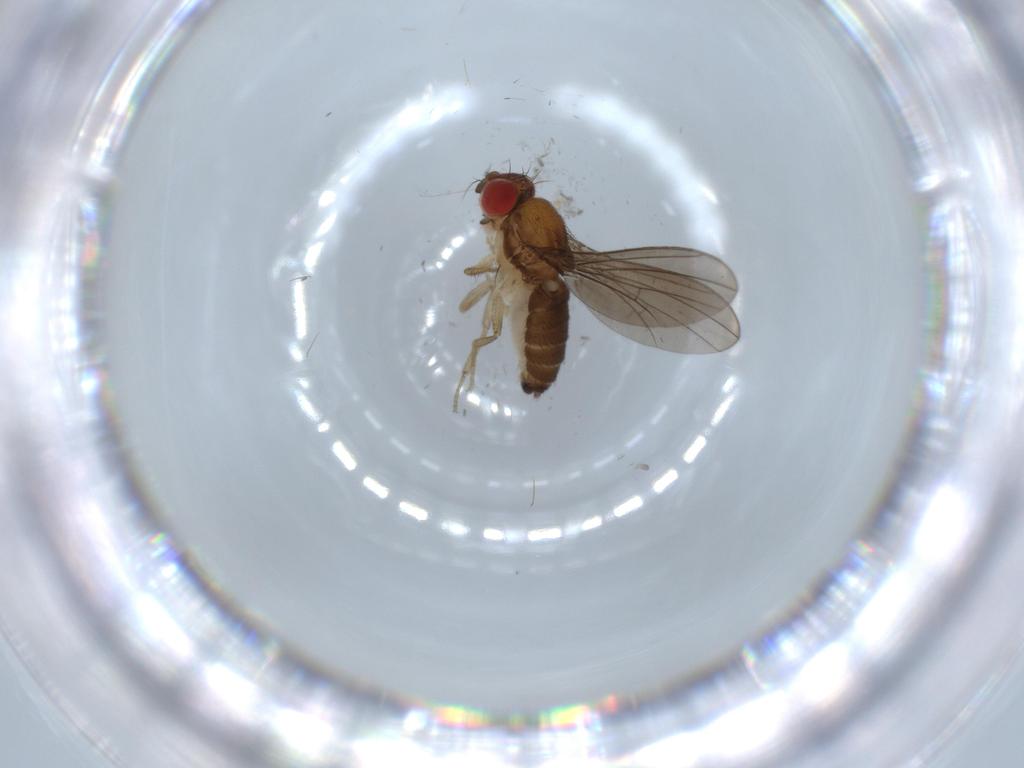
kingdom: Animalia
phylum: Arthropoda
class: Insecta
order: Diptera
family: Drosophilidae
